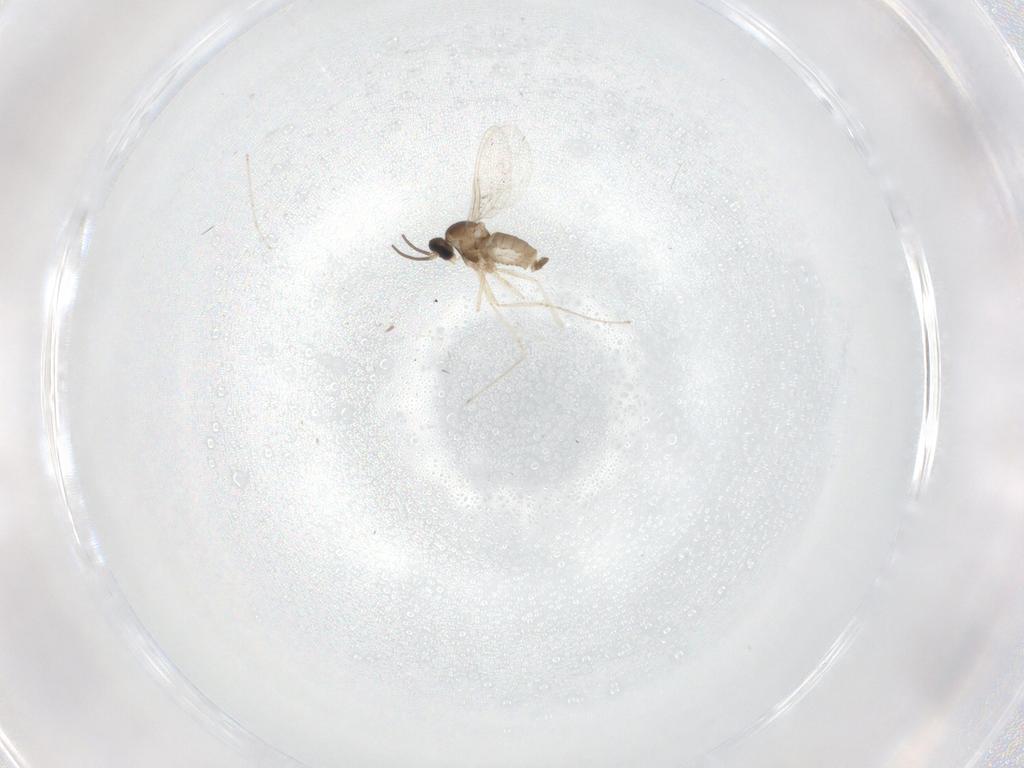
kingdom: Animalia
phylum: Arthropoda
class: Insecta
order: Diptera
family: Cecidomyiidae
